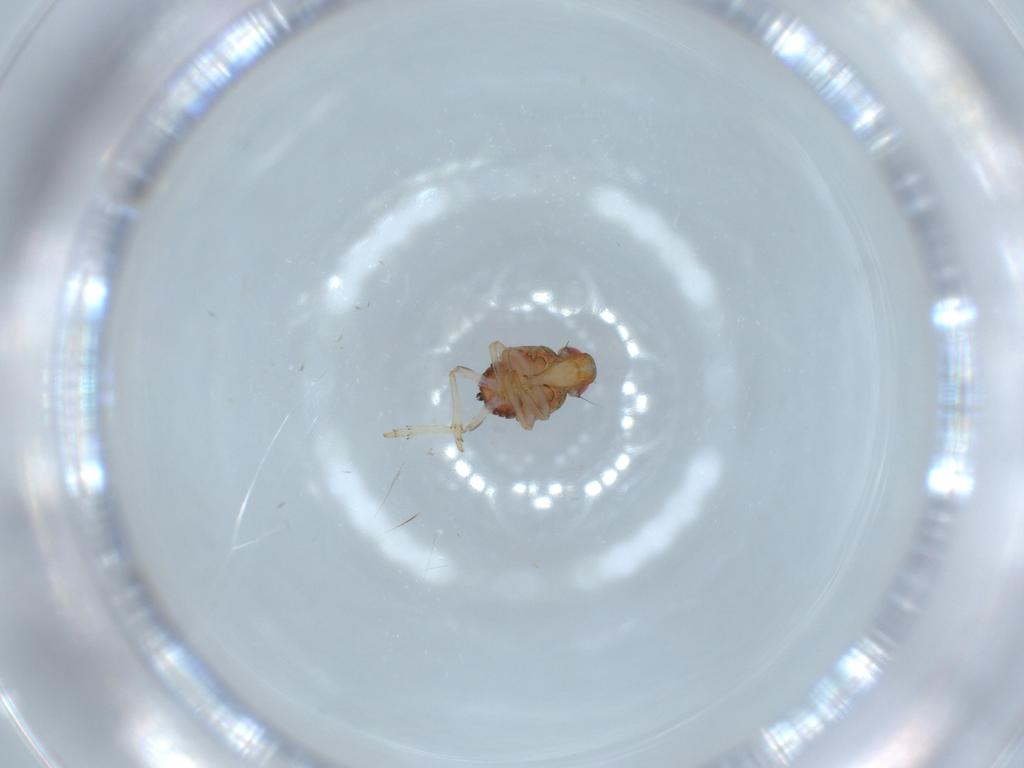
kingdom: Animalia
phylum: Arthropoda
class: Insecta
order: Hemiptera
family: Issidae
